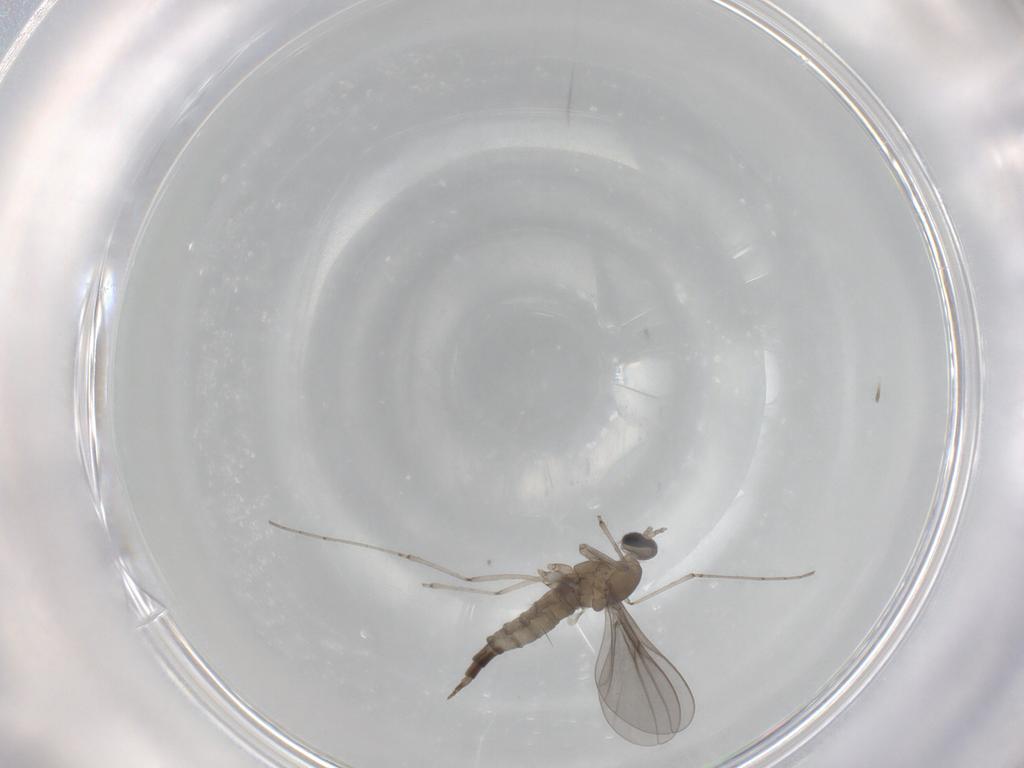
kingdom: Animalia
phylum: Arthropoda
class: Insecta
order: Diptera
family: Cecidomyiidae
